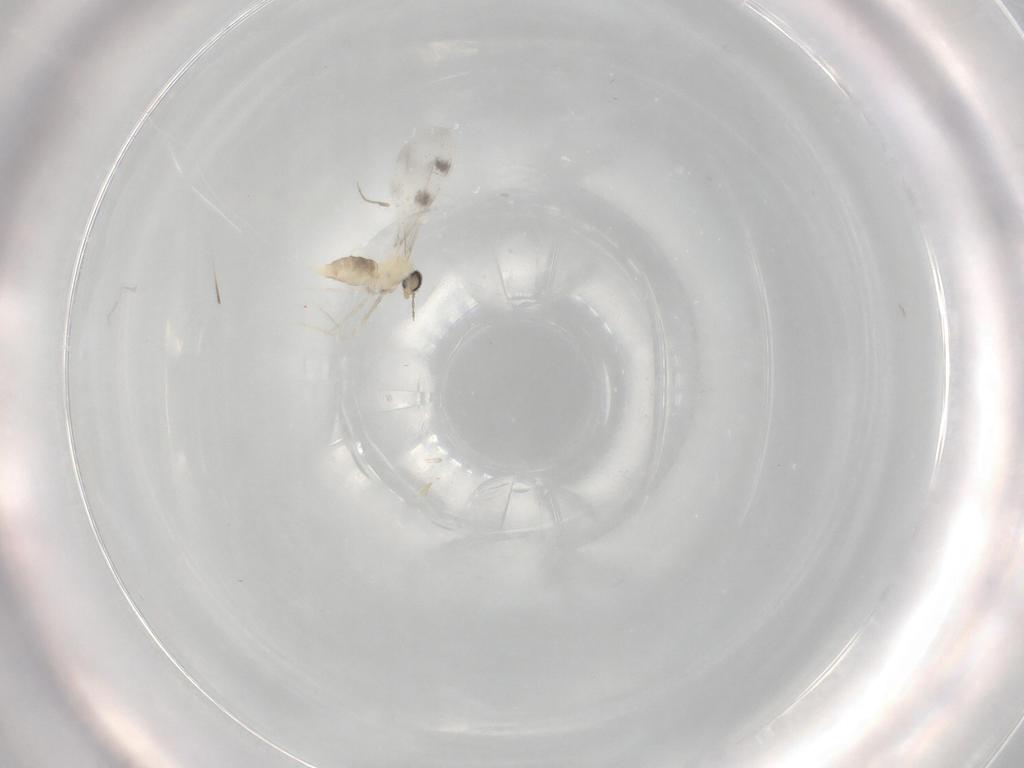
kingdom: Animalia
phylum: Arthropoda
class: Insecta
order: Diptera
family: Cecidomyiidae
